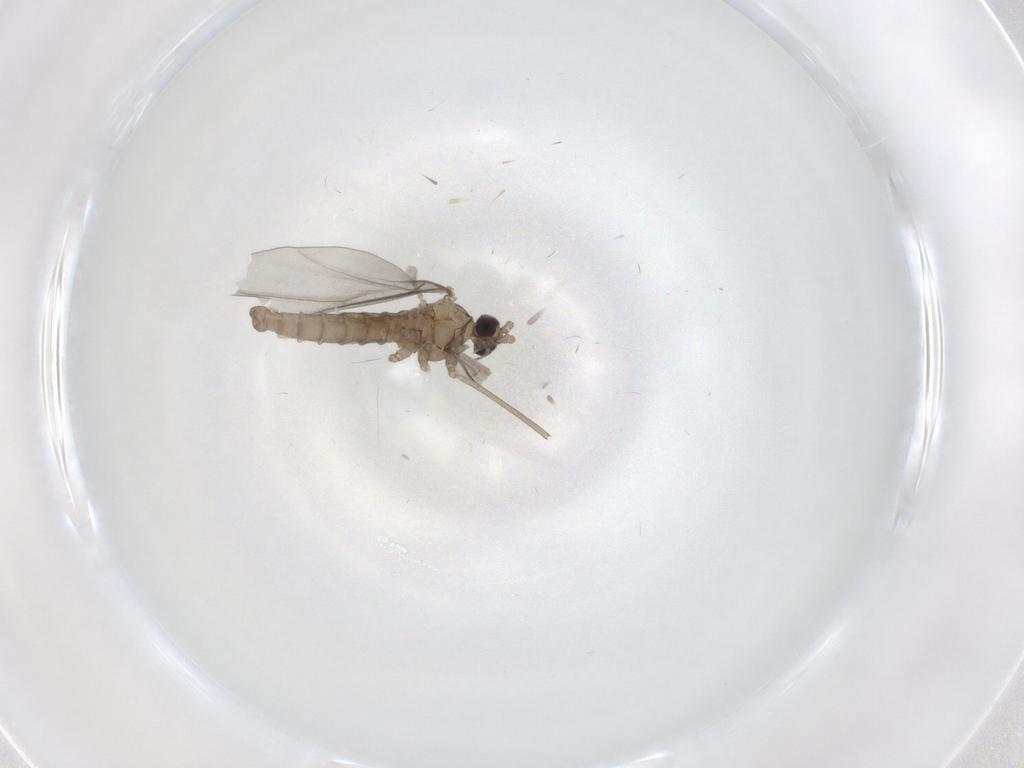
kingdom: Animalia
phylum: Arthropoda
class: Insecta
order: Diptera
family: Cecidomyiidae
